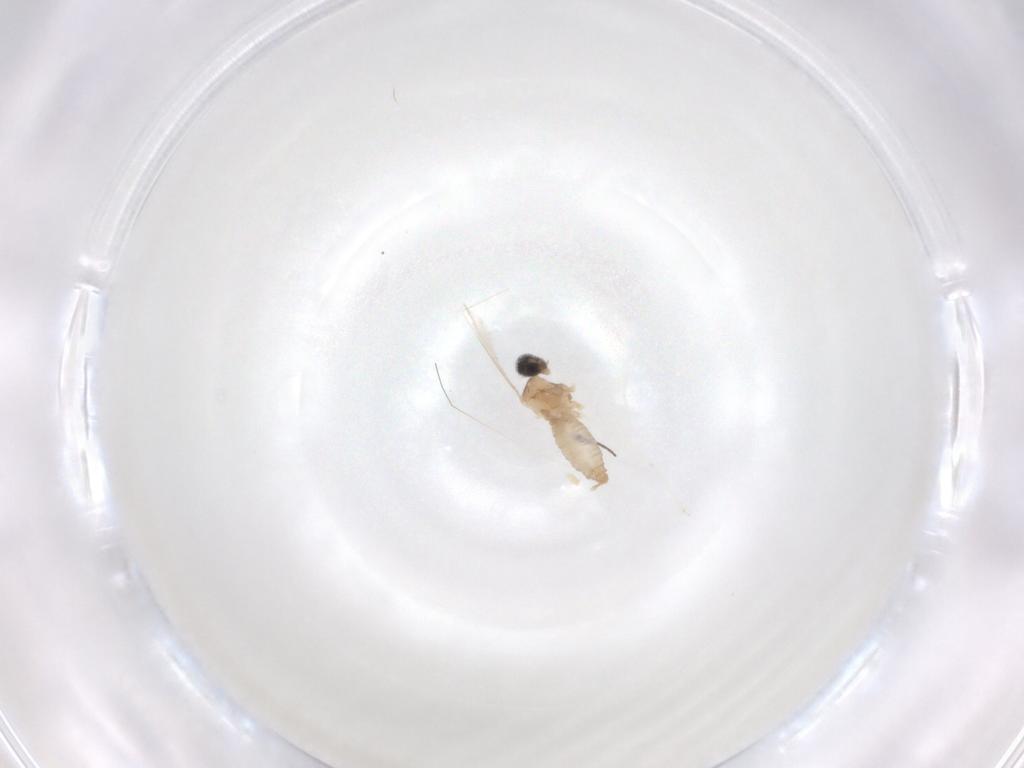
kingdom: Animalia
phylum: Arthropoda
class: Insecta
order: Diptera
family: Cecidomyiidae
